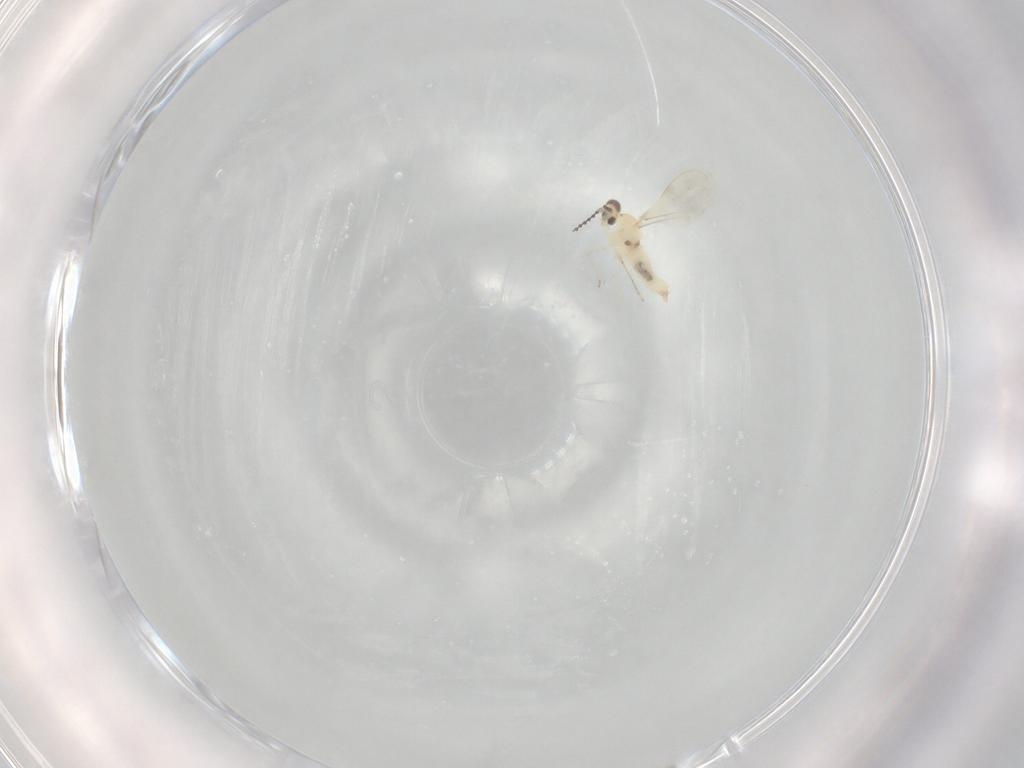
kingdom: Animalia
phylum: Arthropoda
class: Insecta
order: Diptera
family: Cecidomyiidae
